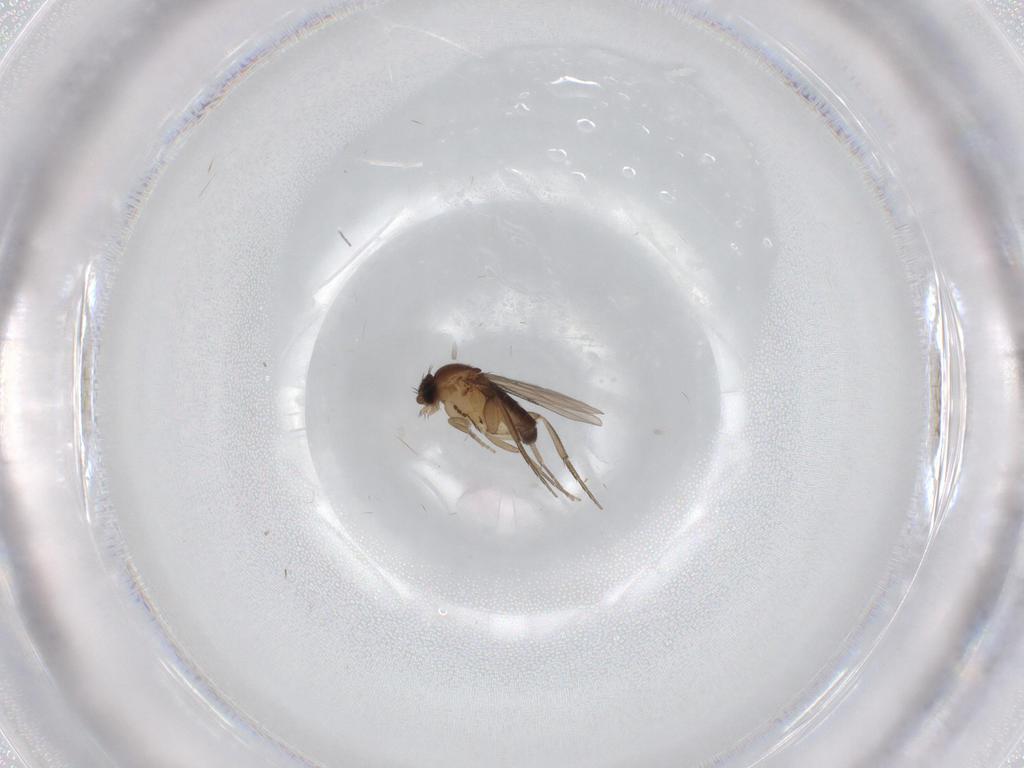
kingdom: Animalia
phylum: Arthropoda
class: Insecta
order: Diptera
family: Phoridae
